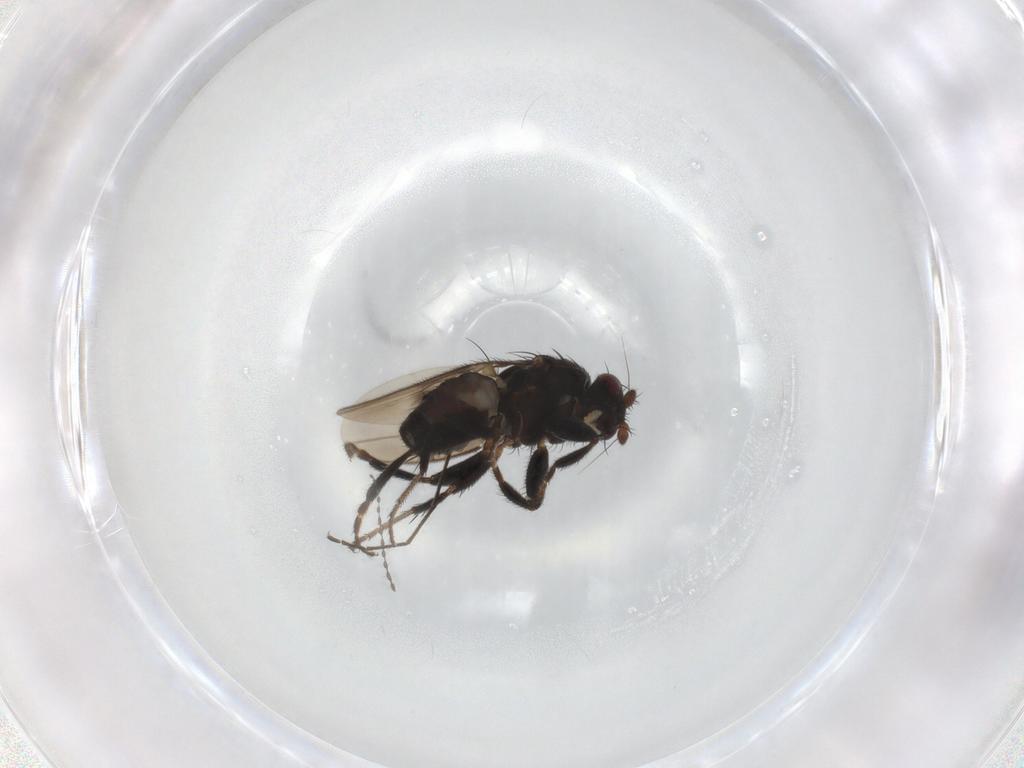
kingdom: Animalia
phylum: Arthropoda
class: Insecta
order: Diptera
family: Sphaeroceridae
